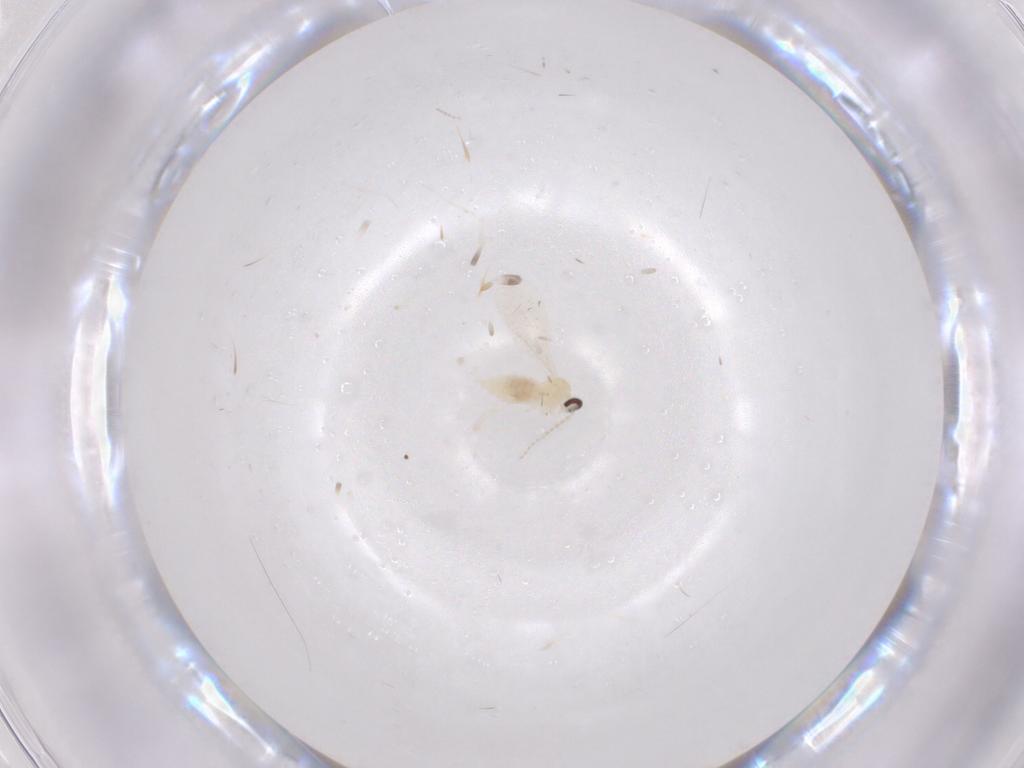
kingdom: Animalia
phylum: Arthropoda
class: Insecta
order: Diptera
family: Cecidomyiidae
